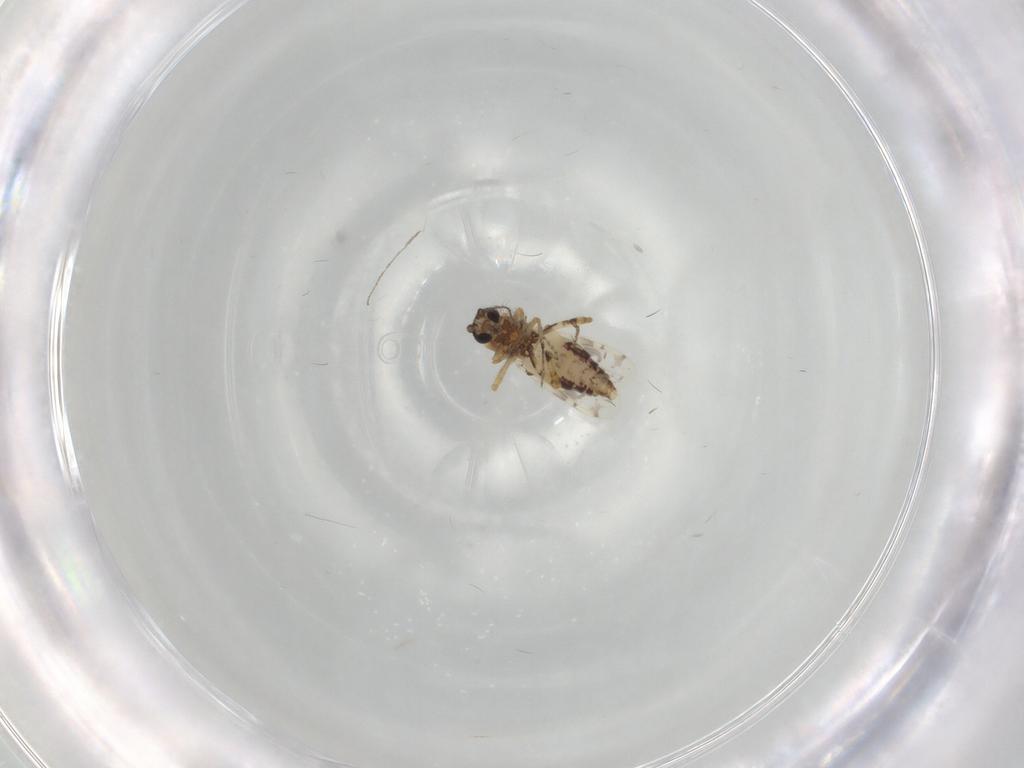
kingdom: Animalia
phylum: Arthropoda
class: Insecta
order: Diptera
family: Ceratopogonidae
